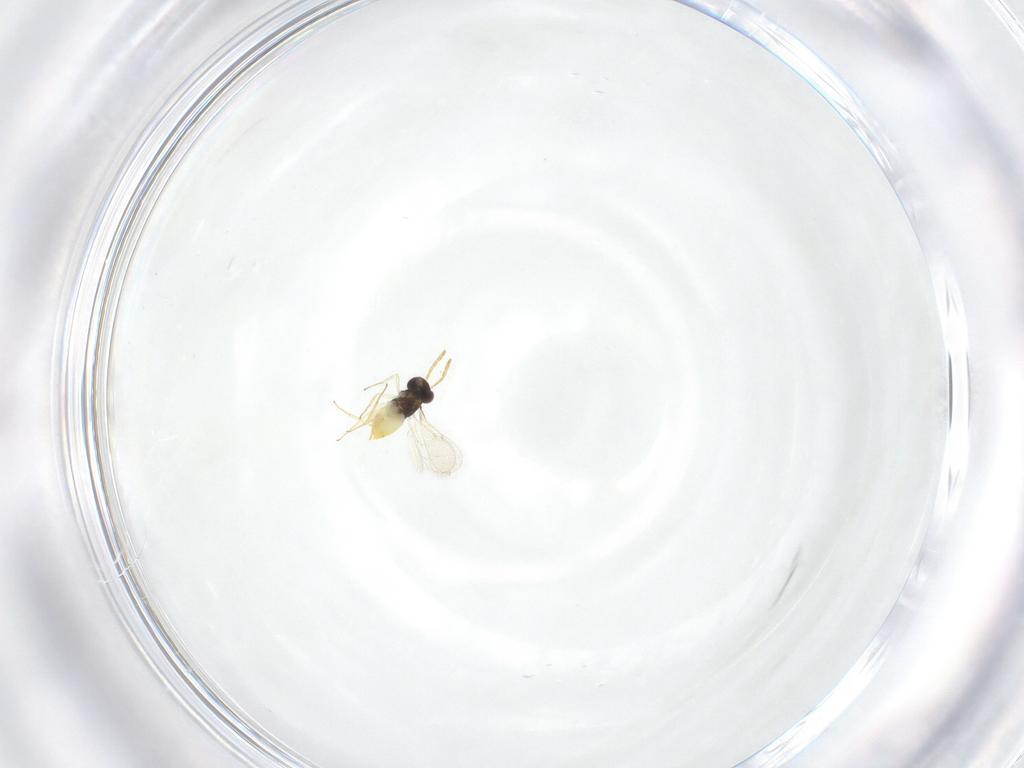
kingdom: Animalia
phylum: Arthropoda
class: Insecta
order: Hymenoptera
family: Aphelinidae
